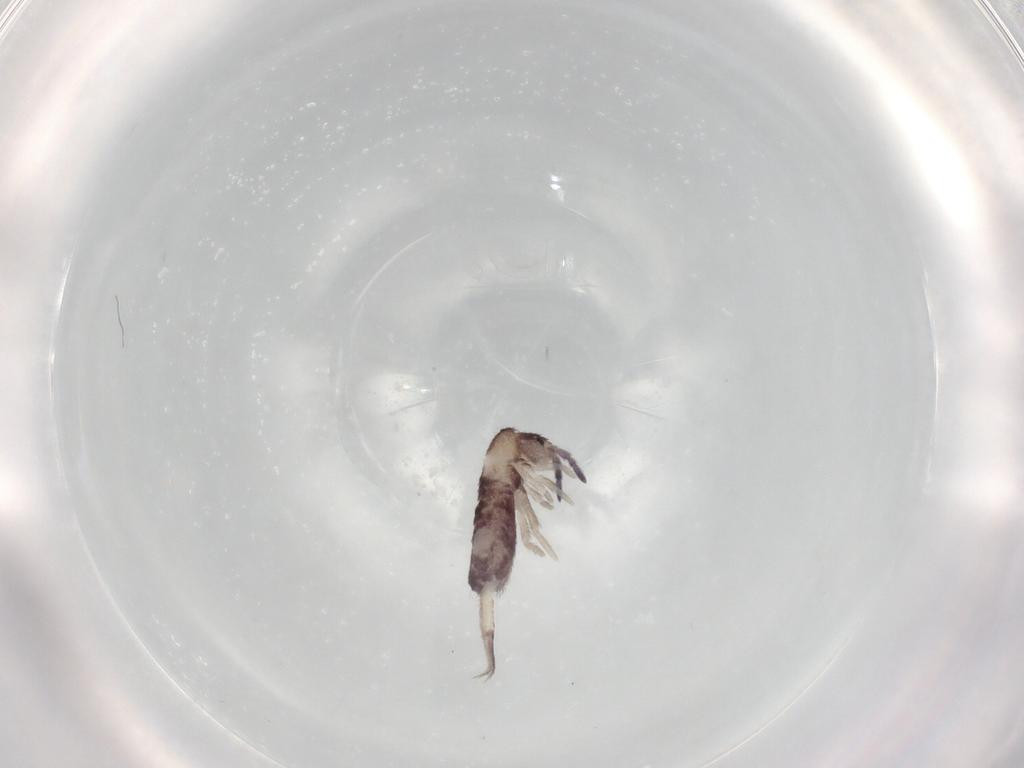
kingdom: Animalia
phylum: Arthropoda
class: Collembola
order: Entomobryomorpha
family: Entomobryidae
